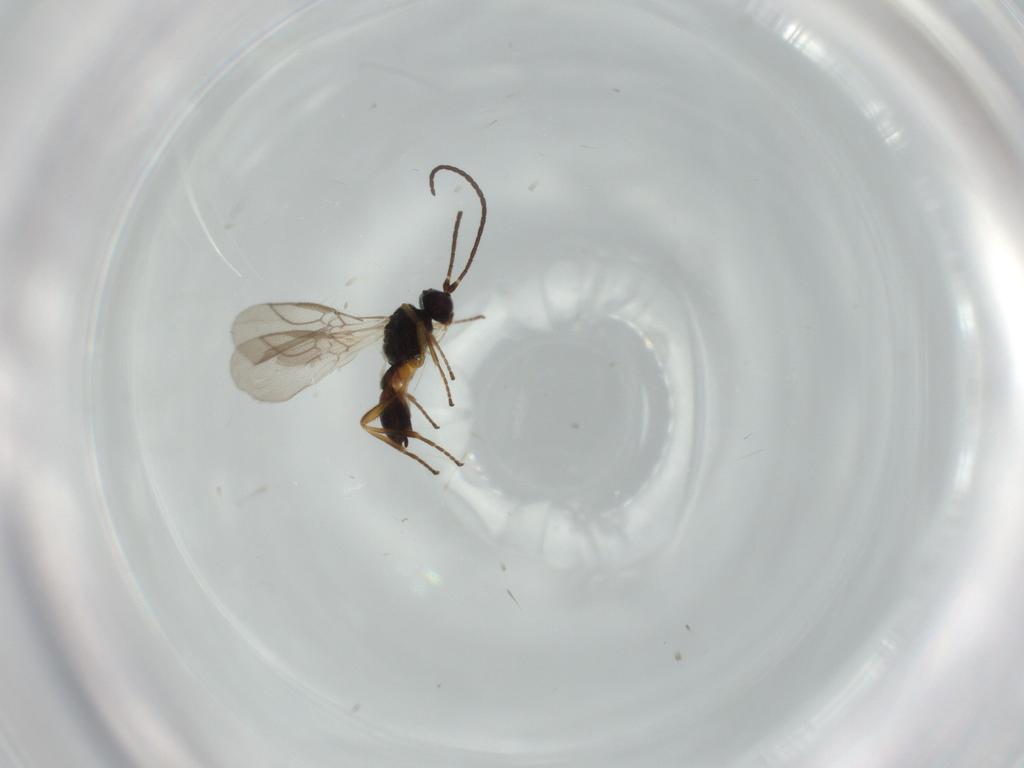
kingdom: Animalia
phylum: Arthropoda
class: Insecta
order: Hymenoptera
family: Braconidae
